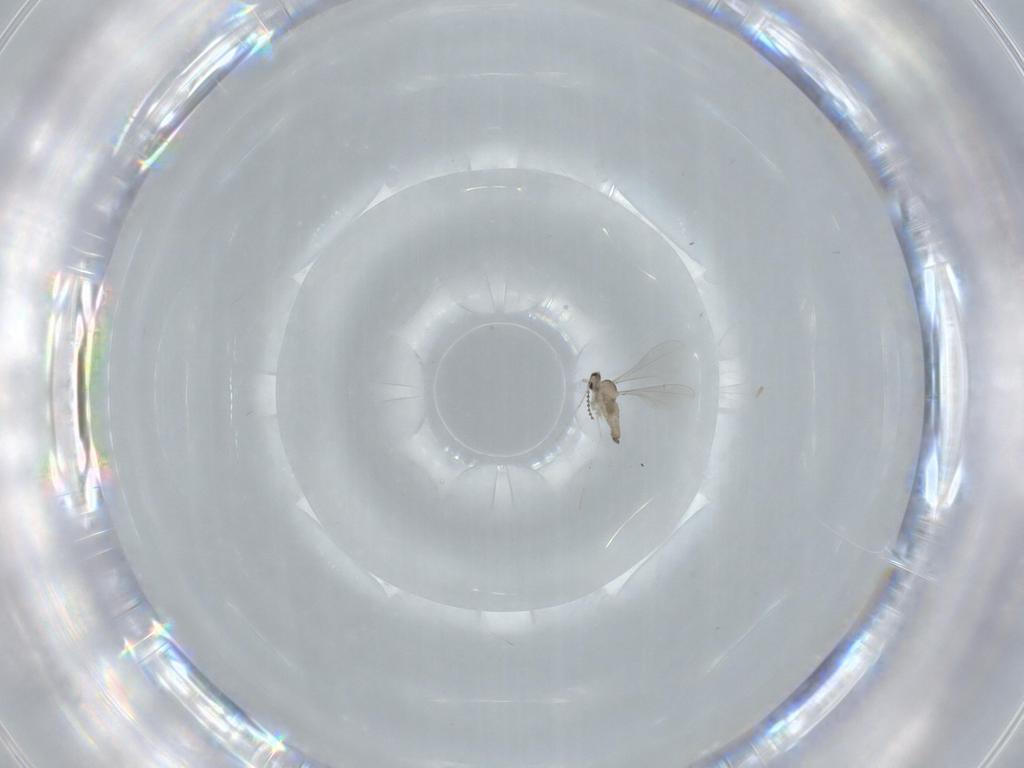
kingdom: Animalia
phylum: Arthropoda
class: Insecta
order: Diptera
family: Cecidomyiidae
